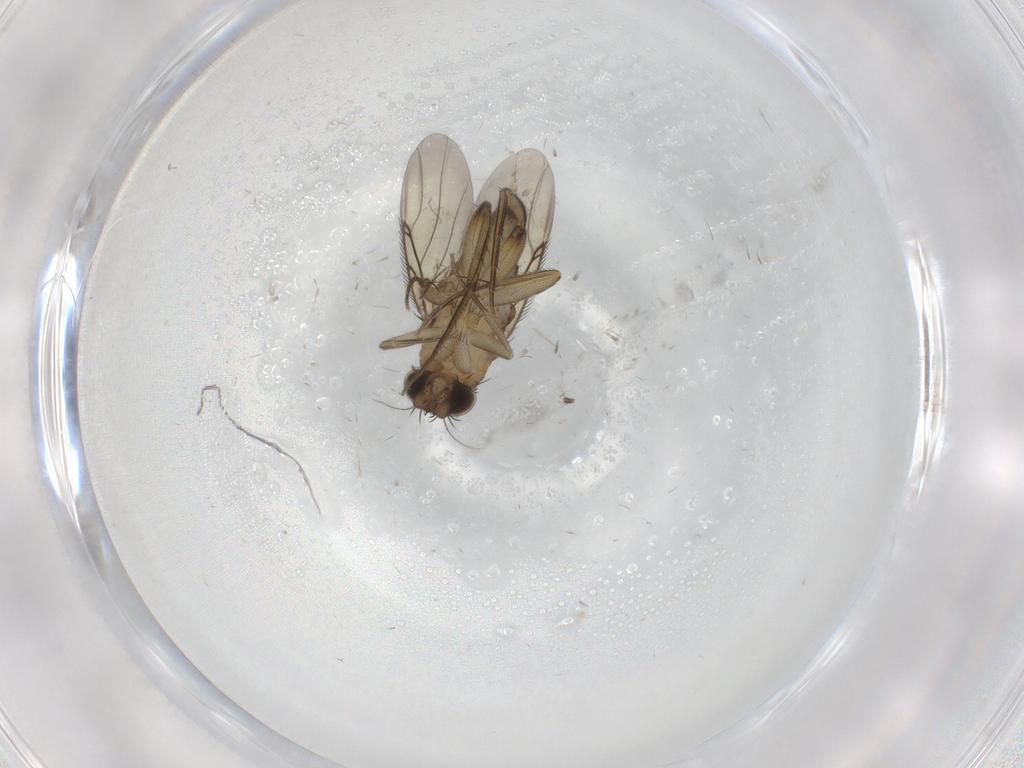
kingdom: Animalia
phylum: Arthropoda
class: Insecta
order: Diptera
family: Phoridae
